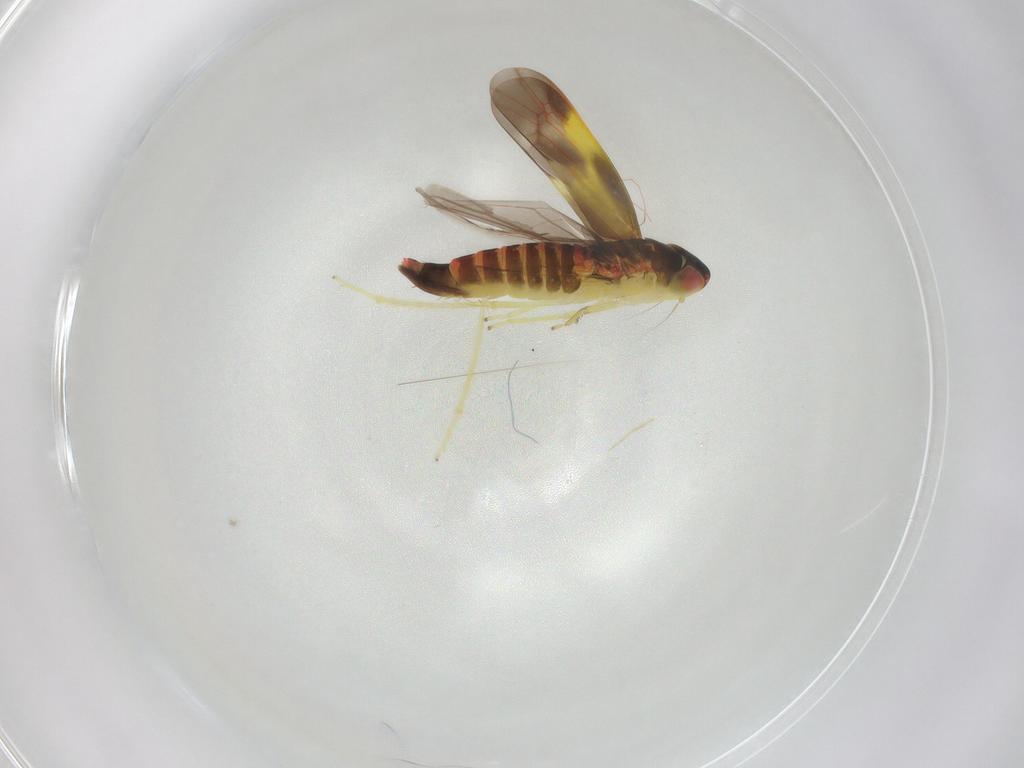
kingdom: Animalia
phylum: Arthropoda
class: Insecta
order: Hemiptera
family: Cicadellidae
